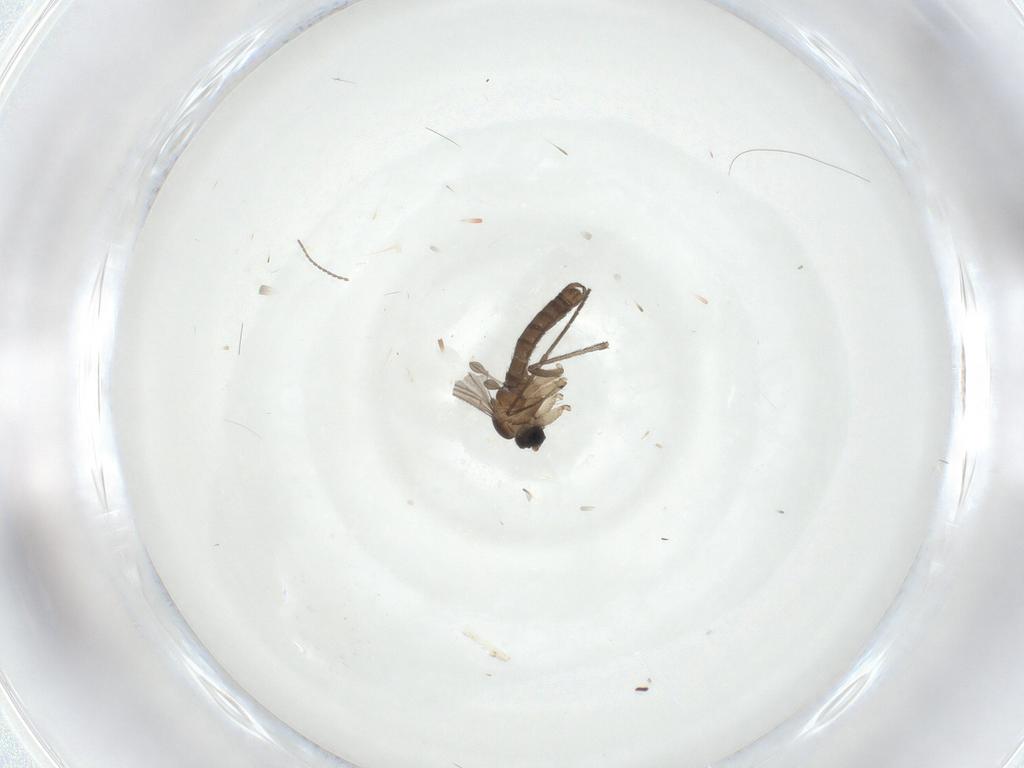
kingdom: Animalia
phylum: Arthropoda
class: Insecta
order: Diptera
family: Sciaridae
